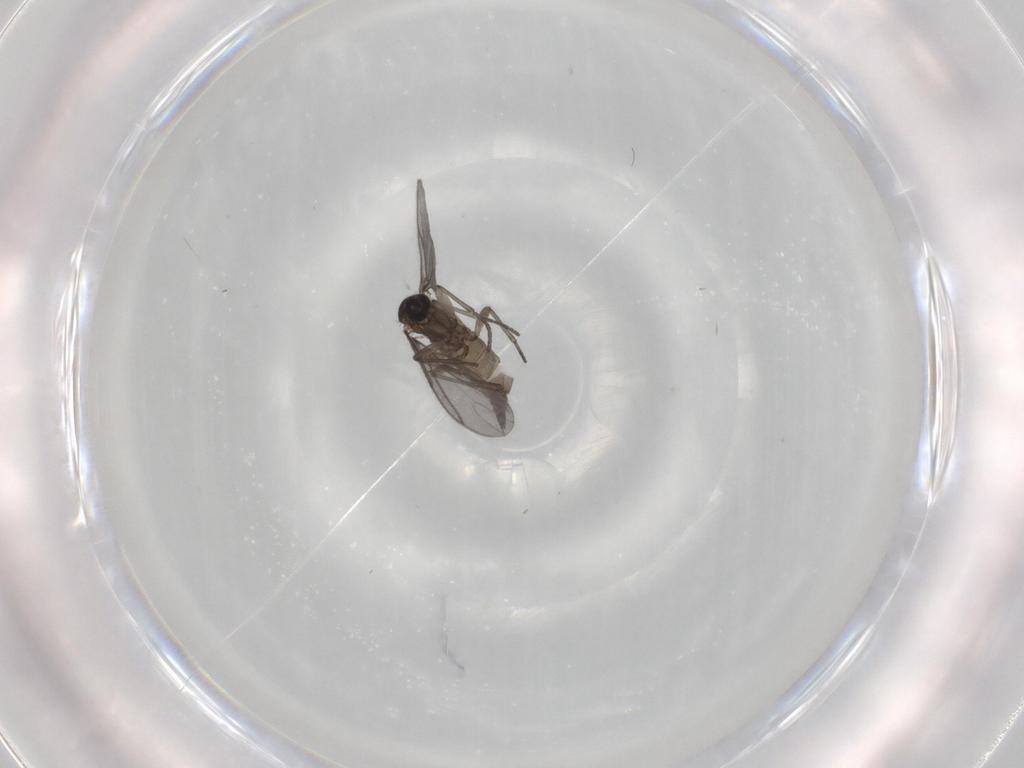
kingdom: Animalia
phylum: Arthropoda
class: Insecta
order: Diptera
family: Sciaridae
